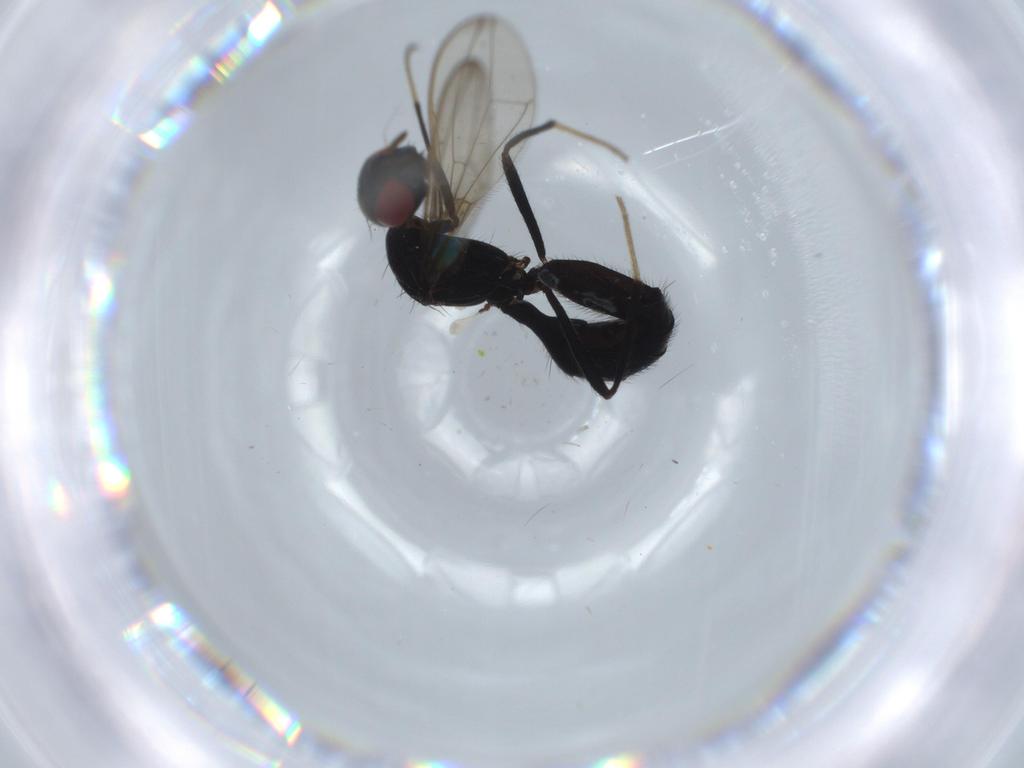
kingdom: Animalia
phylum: Arthropoda
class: Insecta
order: Diptera
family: Richardiidae
